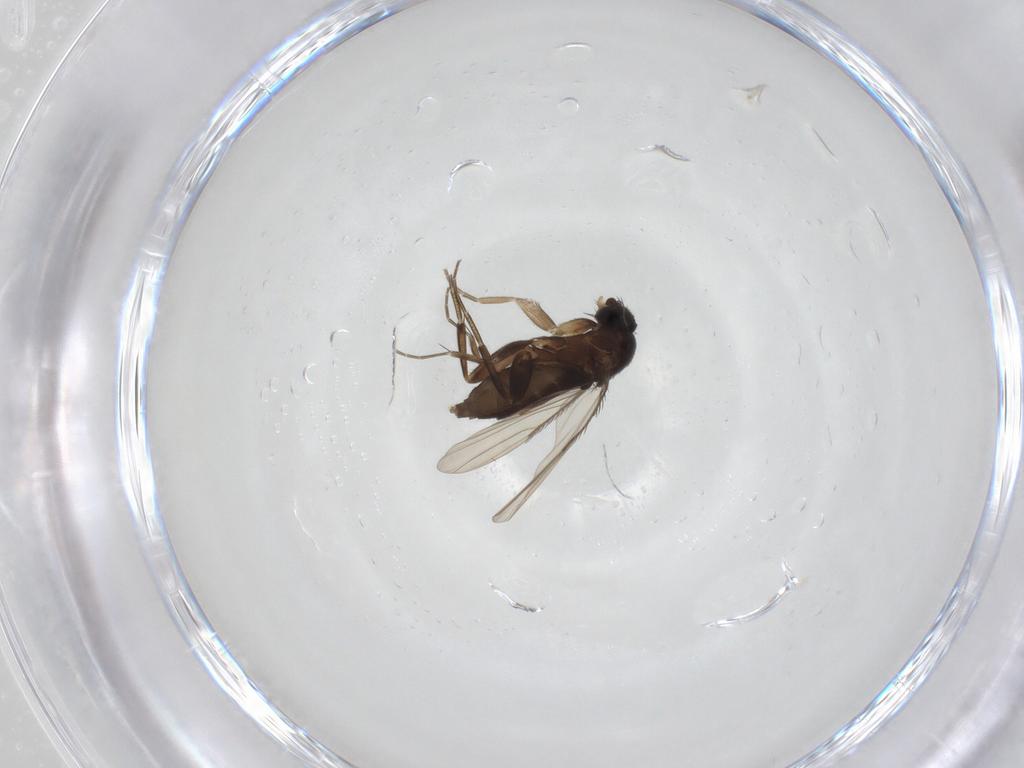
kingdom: Animalia
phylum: Arthropoda
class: Insecta
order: Diptera
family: Phoridae
